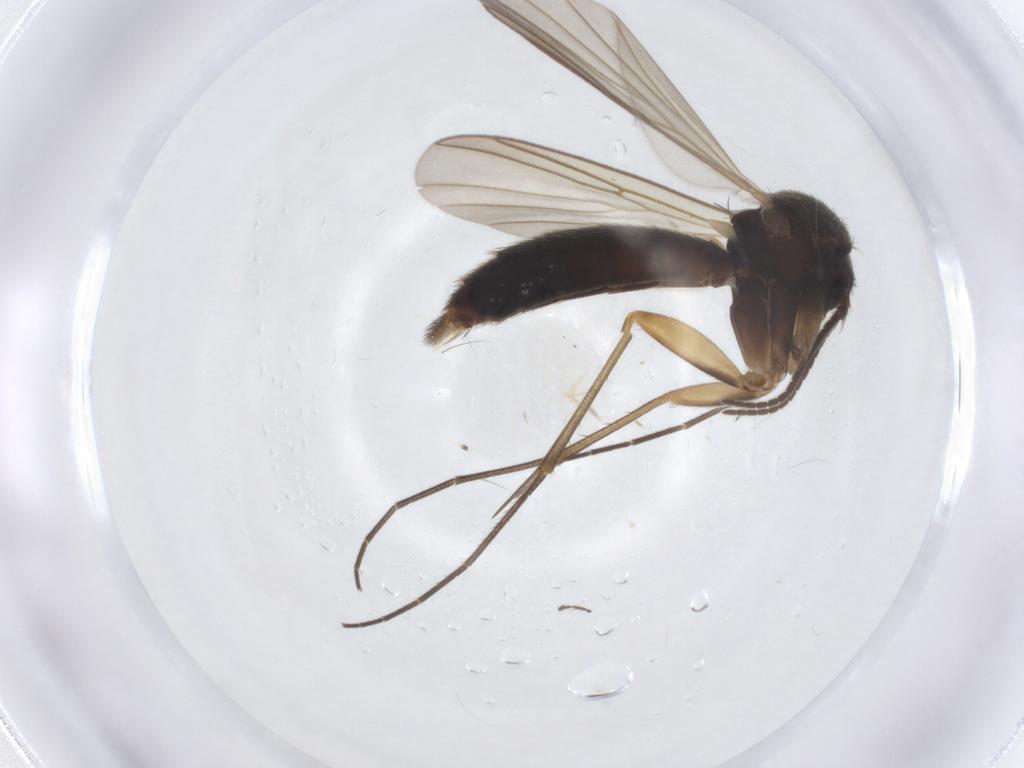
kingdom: Animalia
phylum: Arthropoda
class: Insecta
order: Diptera
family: Mycetophilidae
